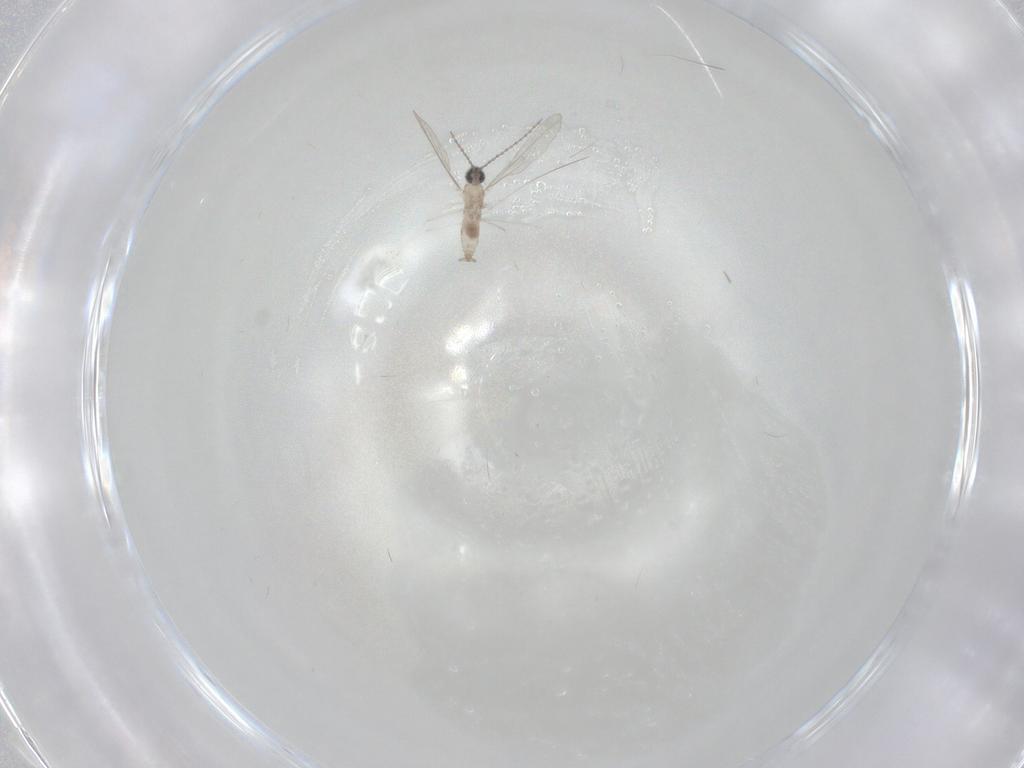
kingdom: Animalia
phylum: Arthropoda
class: Insecta
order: Diptera
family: Cecidomyiidae
